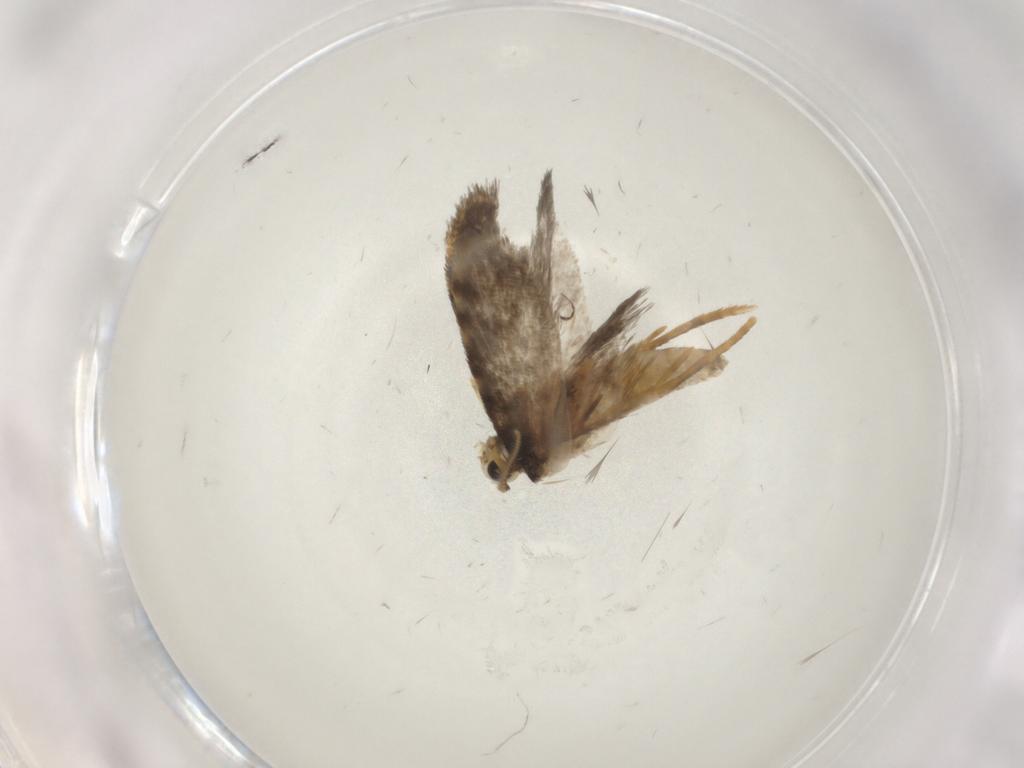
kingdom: Animalia
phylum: Arthropoda
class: Insecta
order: Lepidoptera
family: Psychidae
